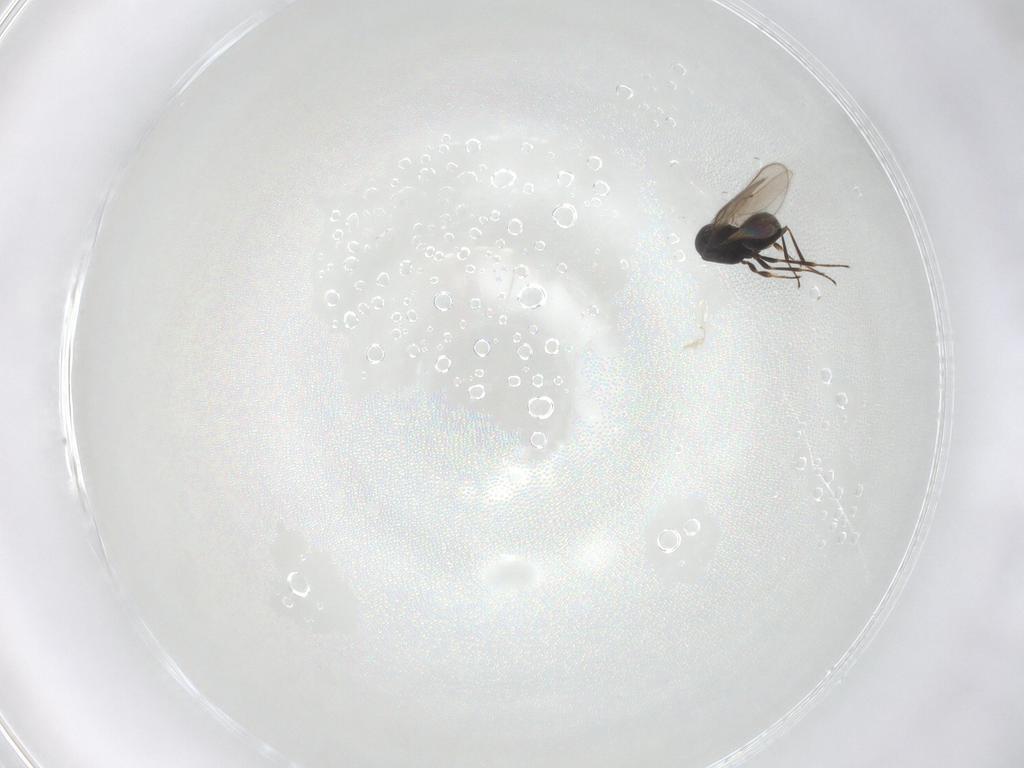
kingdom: Animalia
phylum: Arthropoda
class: Insecta
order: Hymenoptera
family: Scelionidae
